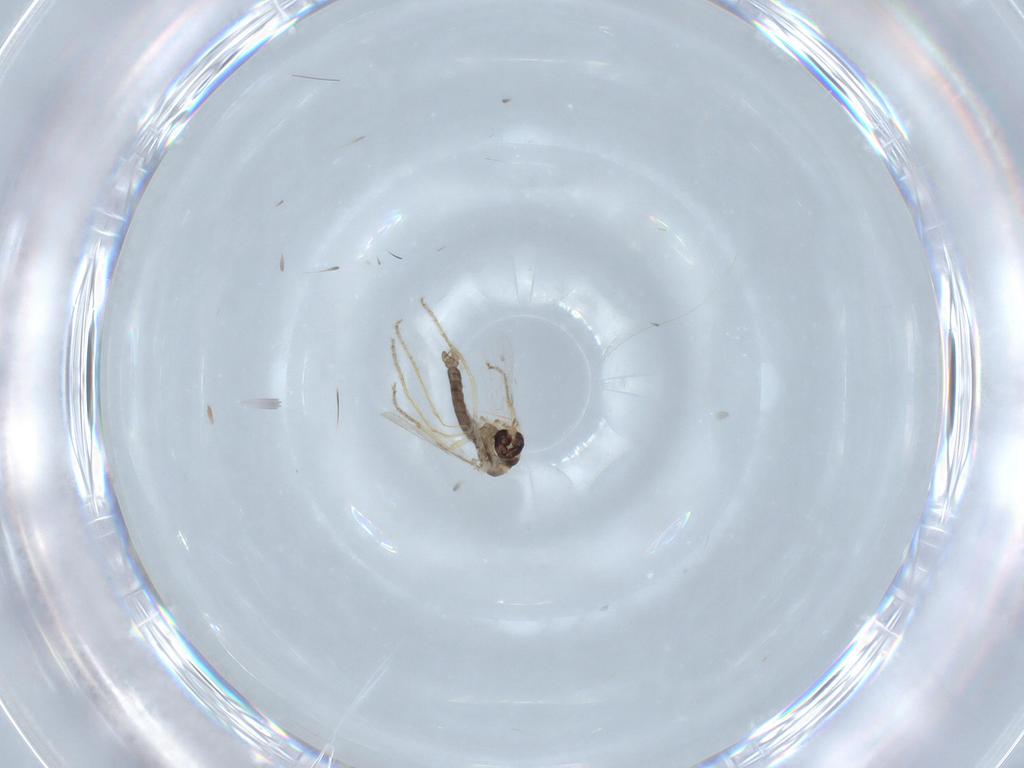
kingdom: Animalia
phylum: Arthropoda
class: Insecta
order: Diptera
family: Ceratopogonidae
